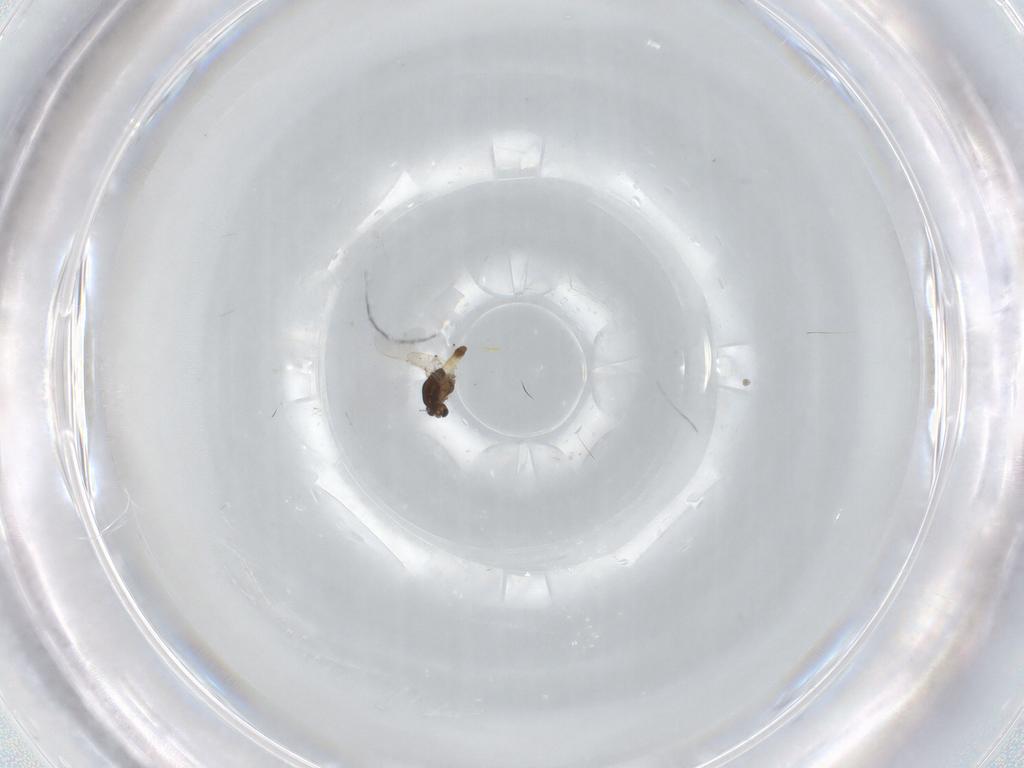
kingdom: Animalia
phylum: Arthropoda
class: Insecta
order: Diptera
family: Chironomidae
